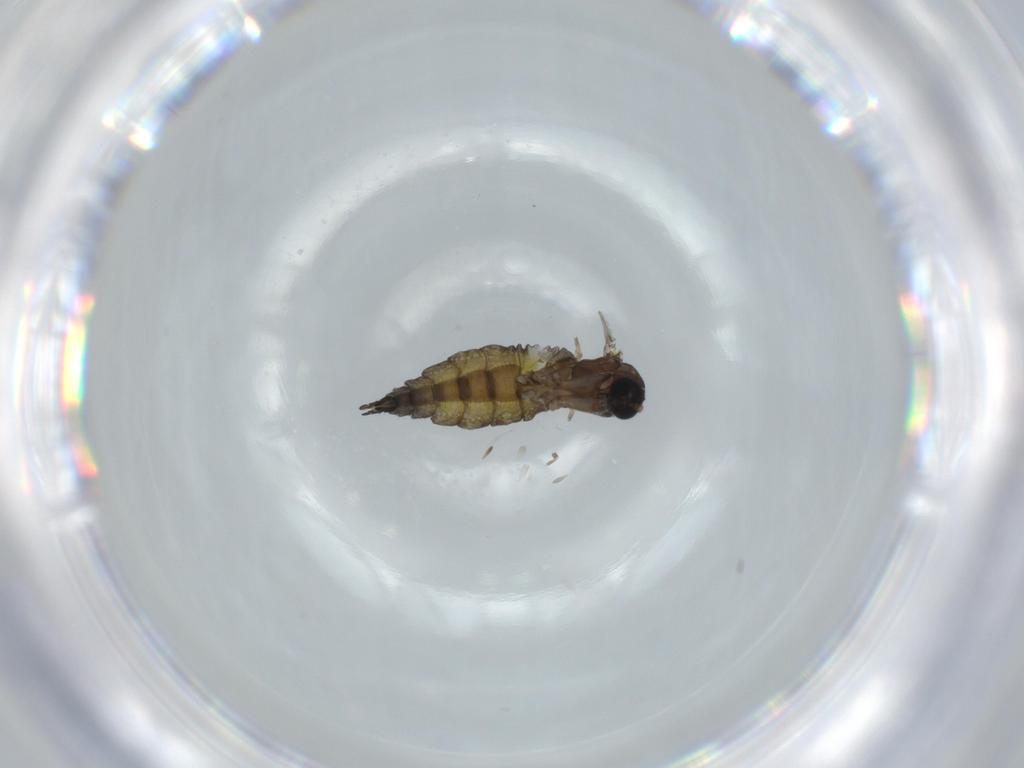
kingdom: Animalia
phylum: Arthropoda
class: Insecta
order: Diptera
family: Sciaridae
